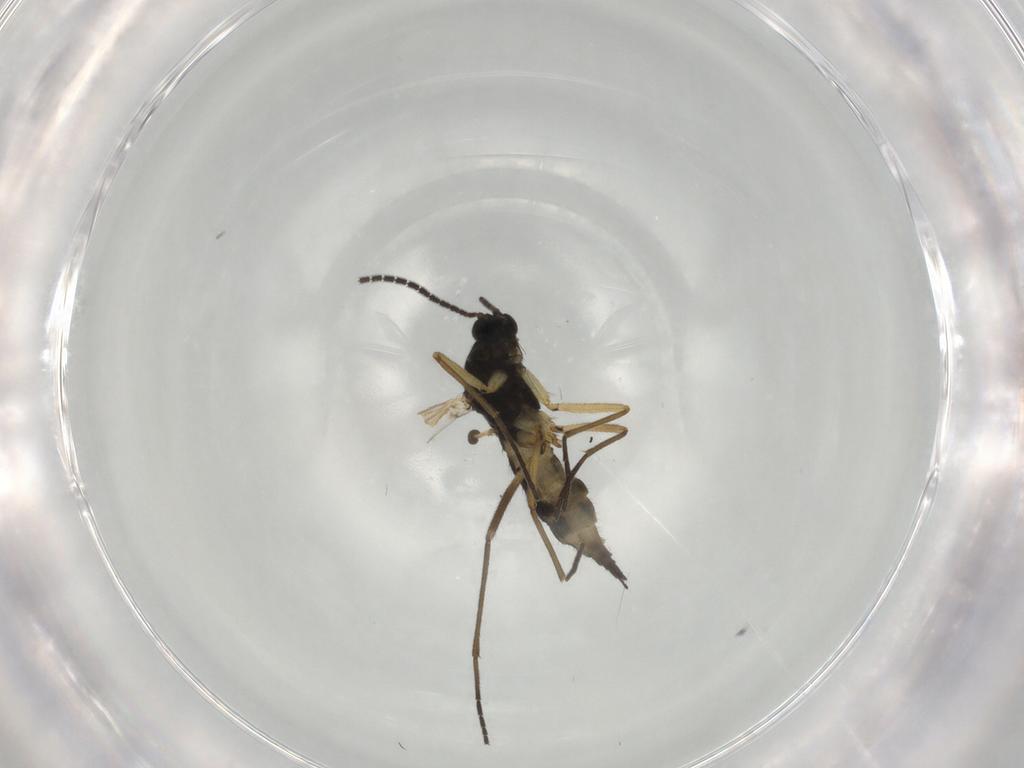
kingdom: Animalia
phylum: Arthropoda
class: Insecta
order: Diptera
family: Sciaridae
